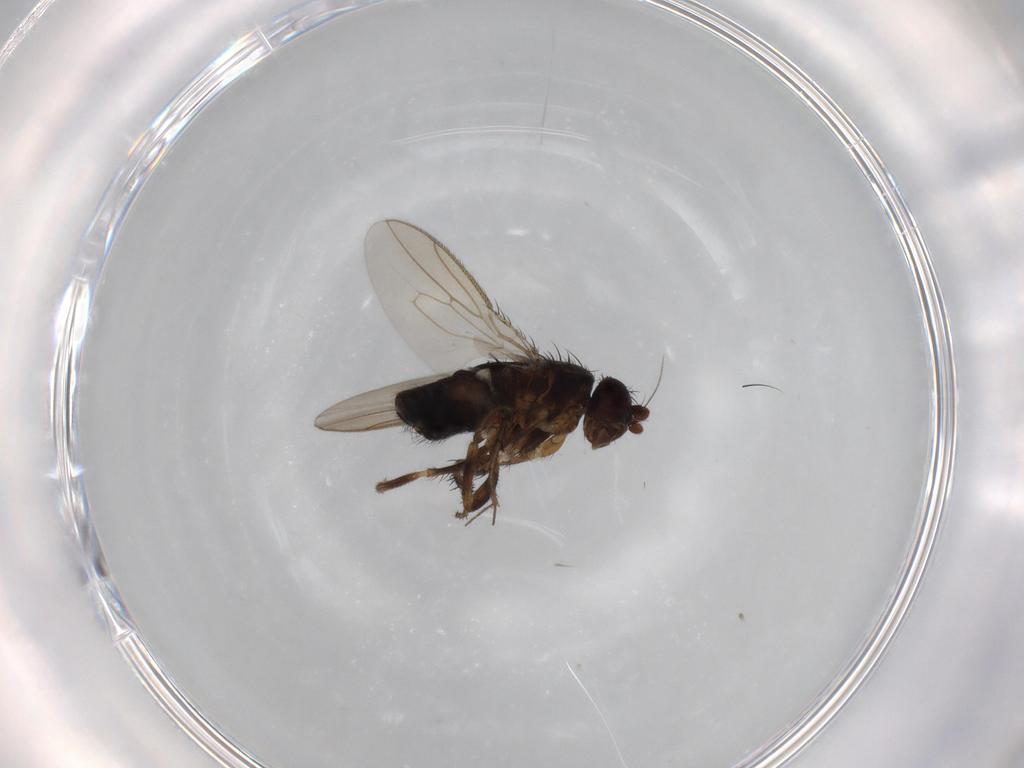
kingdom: Animalia
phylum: Arthropoda
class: Insecta
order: Diptera
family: Sphaeroceridae
